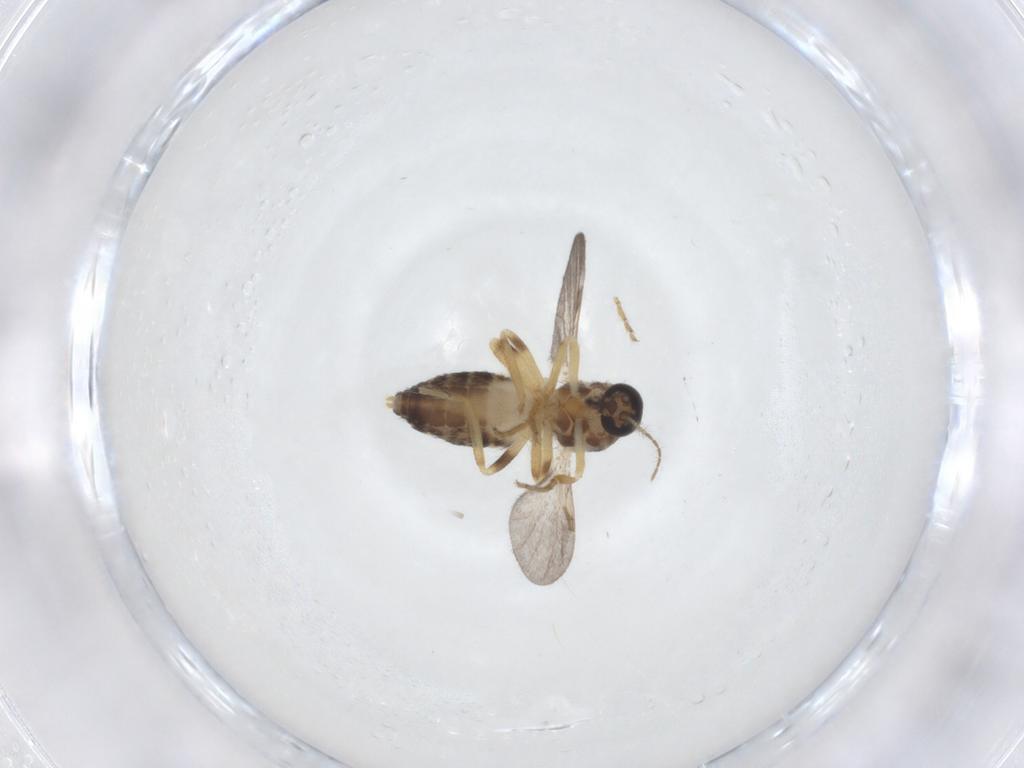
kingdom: Animalia
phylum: Arthropoda
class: Insecta
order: Diptera
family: Ceratopogonidae
